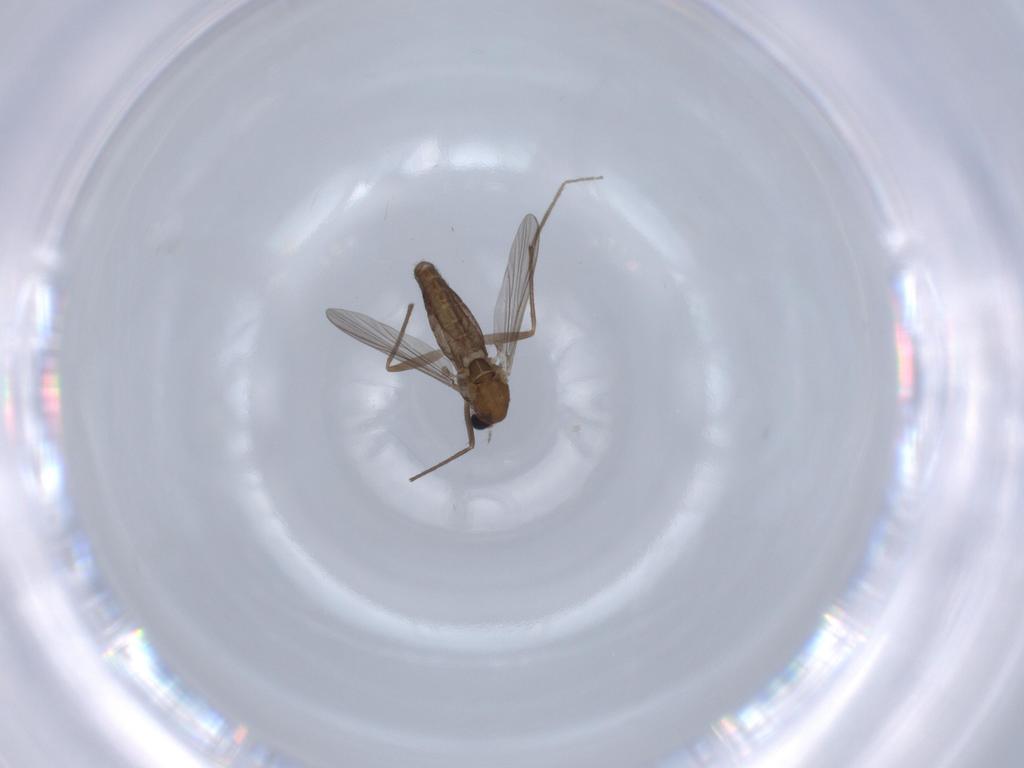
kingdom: Animalia
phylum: Arthropoda
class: Insecta
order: Diptera
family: Chironomidae
